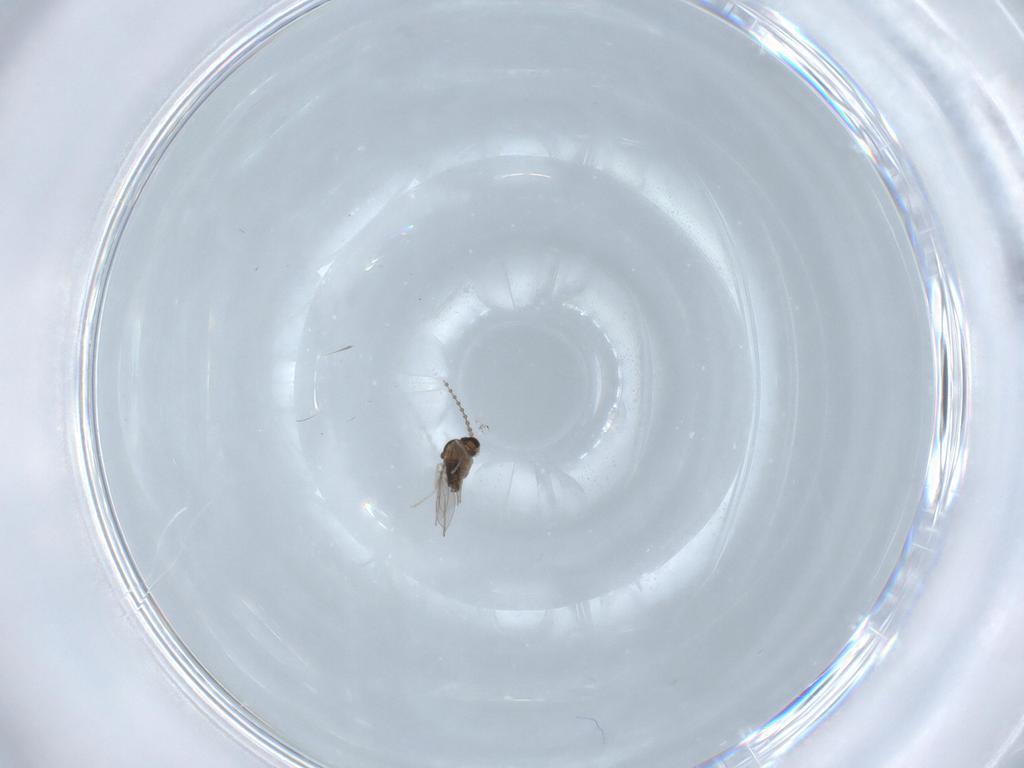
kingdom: Animalia
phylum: Arthropoda
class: Insecta
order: Diptera
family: Cecidomyiidae
